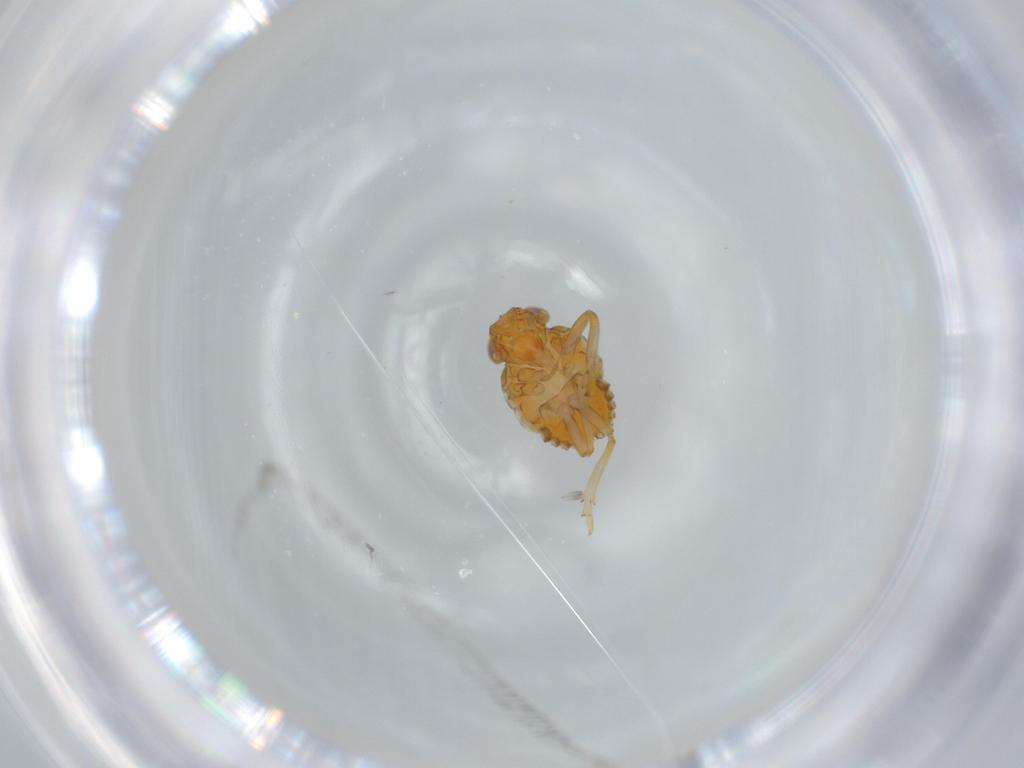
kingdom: Animalia
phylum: Arthropoda
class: Insecta
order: Hemiptera
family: Issidae
